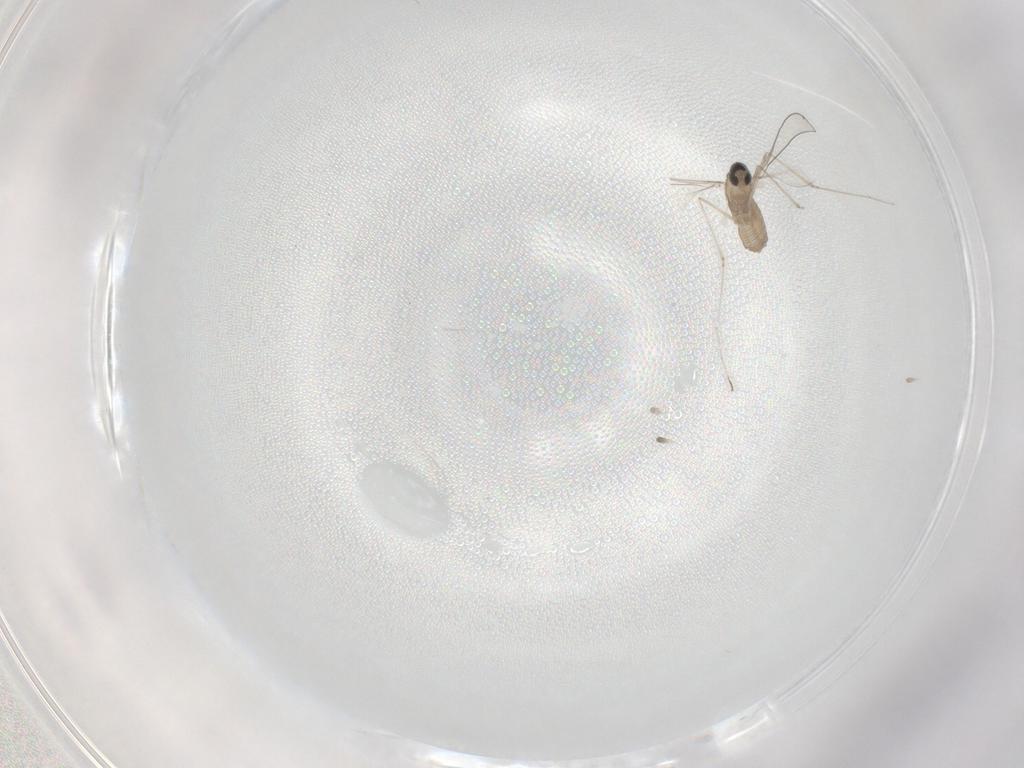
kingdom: Animalia
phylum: Arthropoda
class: Insecta
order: Diptera
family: Cecidomyiidae
